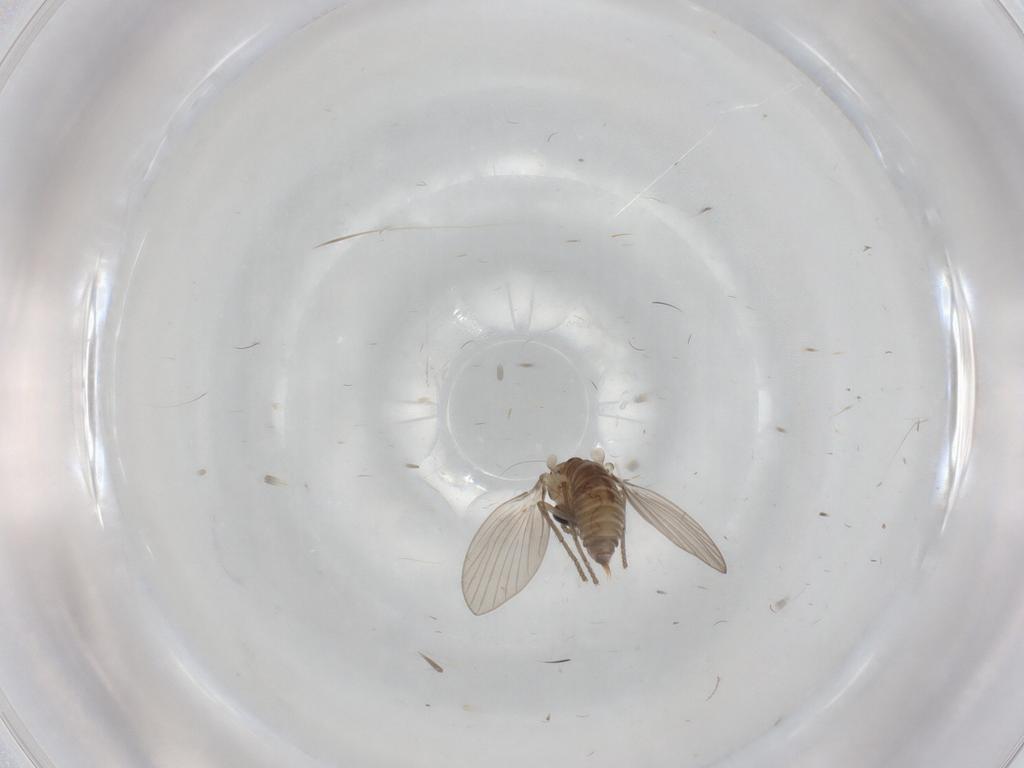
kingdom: Animalia
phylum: Arthropoda
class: Insecta
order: Diptera
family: Psychodidae
